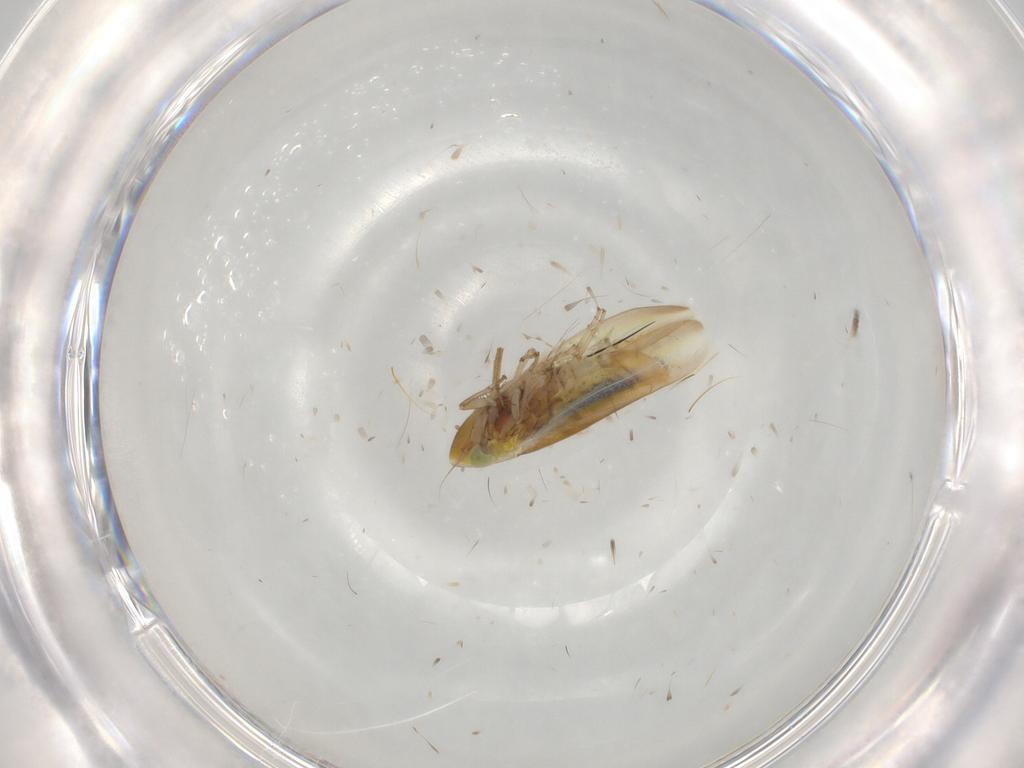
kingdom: Animalia
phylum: Arthropoda
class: Insecta
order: Hemiptera
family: Cicadellidae
